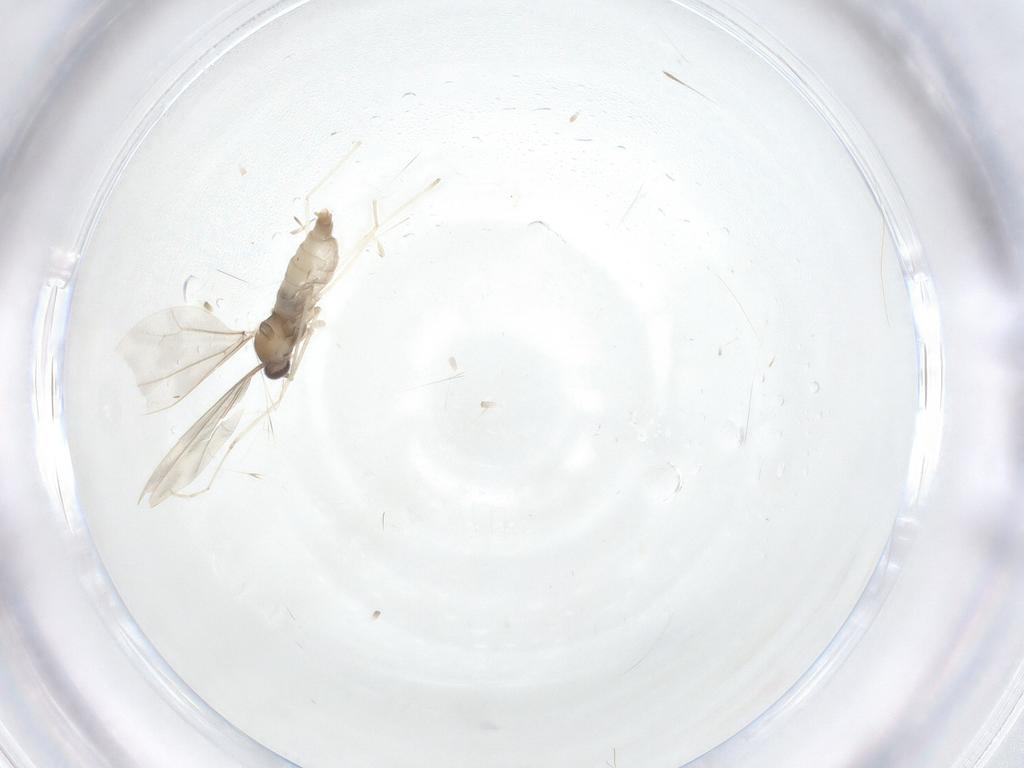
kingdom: Animalia
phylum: Arthropoda
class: Insecta
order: Diptera
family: Cecidomyiidae
